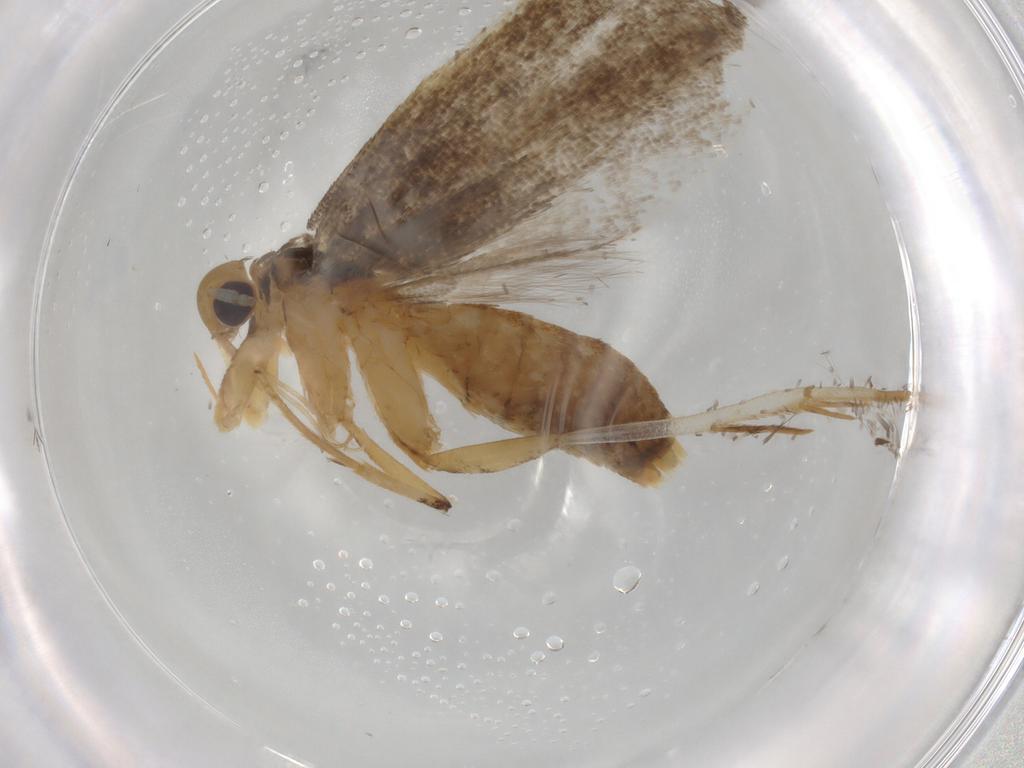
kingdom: Animalia
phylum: Arthropoda
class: Insecta
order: Lepidoptera
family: Lecithoceridae
